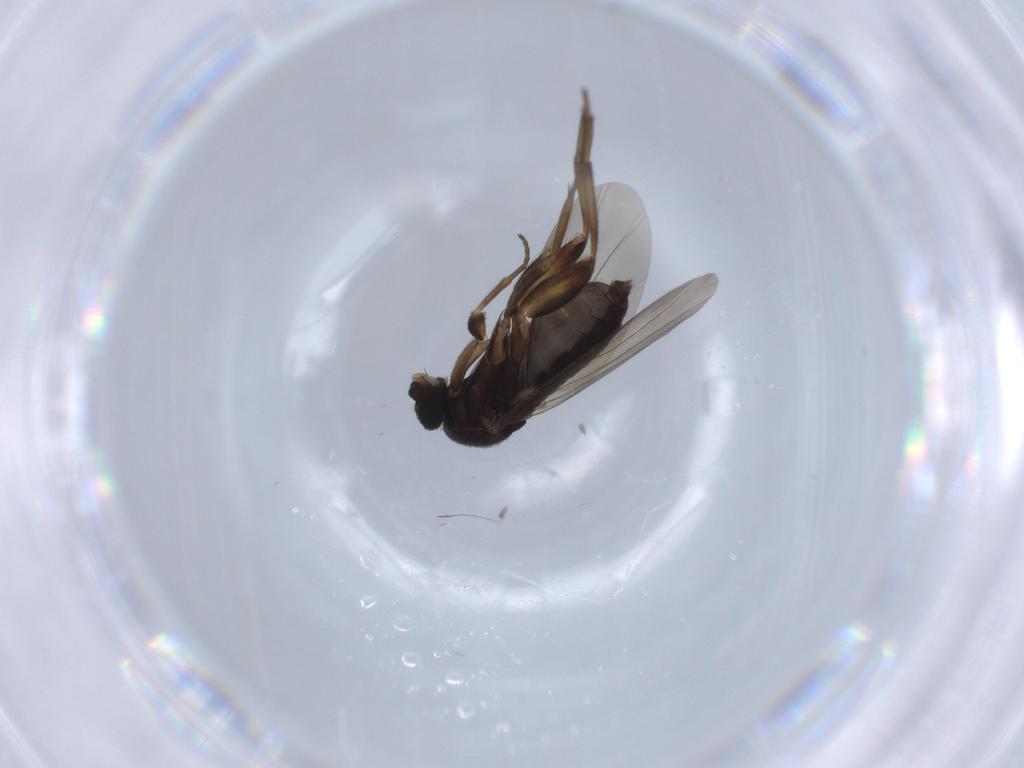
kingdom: Animalia
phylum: Arthropoda
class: Insecta
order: Diptera
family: Phoridae
